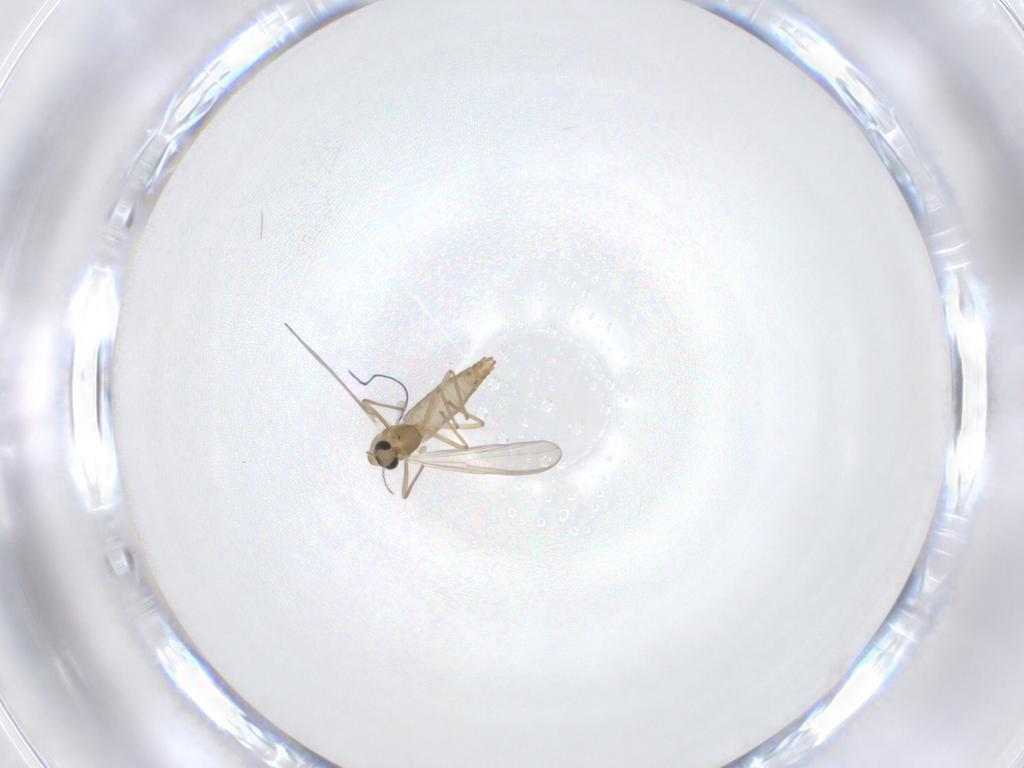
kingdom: Animalia
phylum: Arthropoda
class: Insecta
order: Diptera
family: Chironomidae
